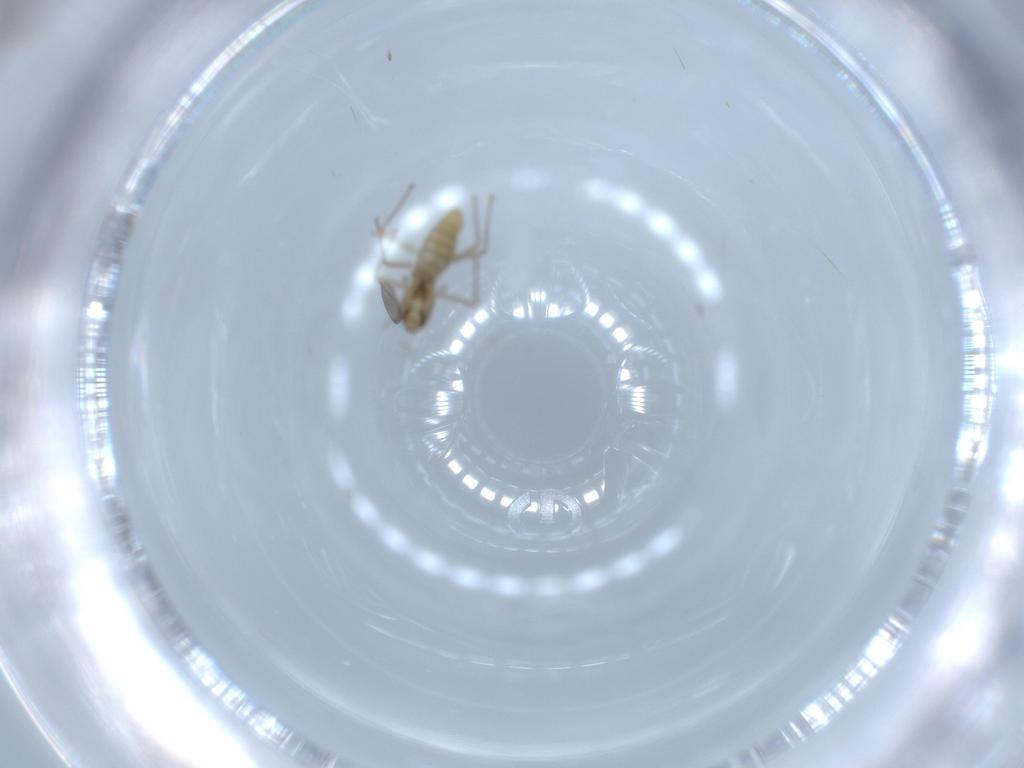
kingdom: Animalia
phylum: Arthropoda
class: Insecta
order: Diptera
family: Chironomidae
